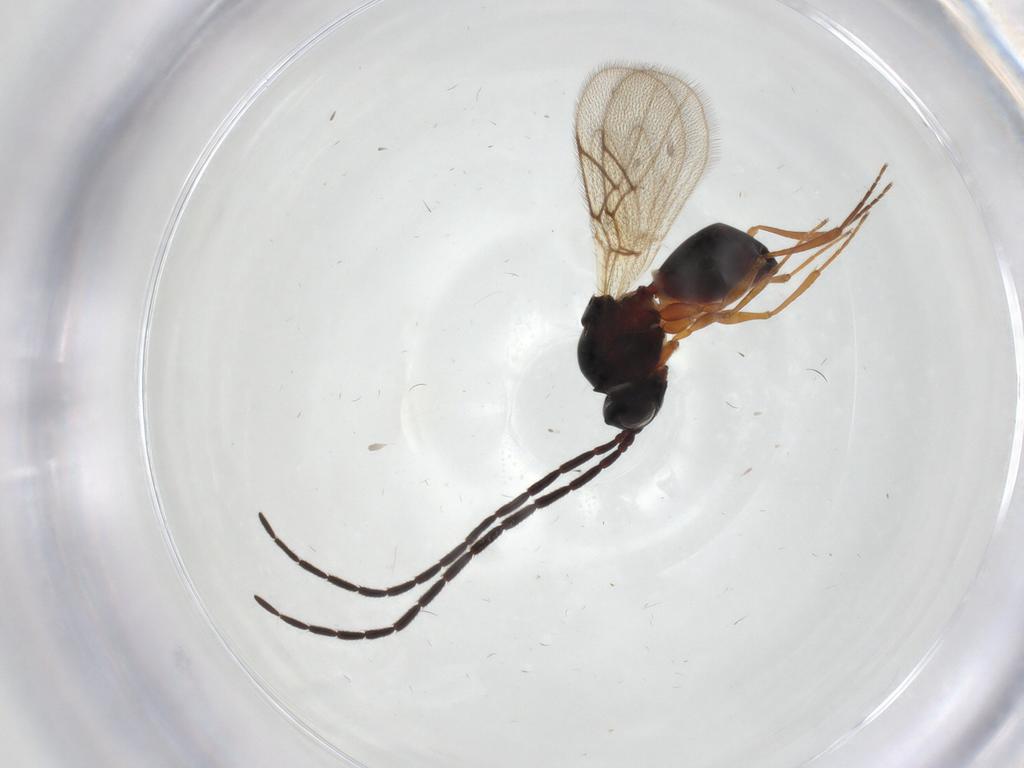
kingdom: Animalia
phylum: Arthropoda
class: Insecta
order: Hymenoptera
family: Figitidae
